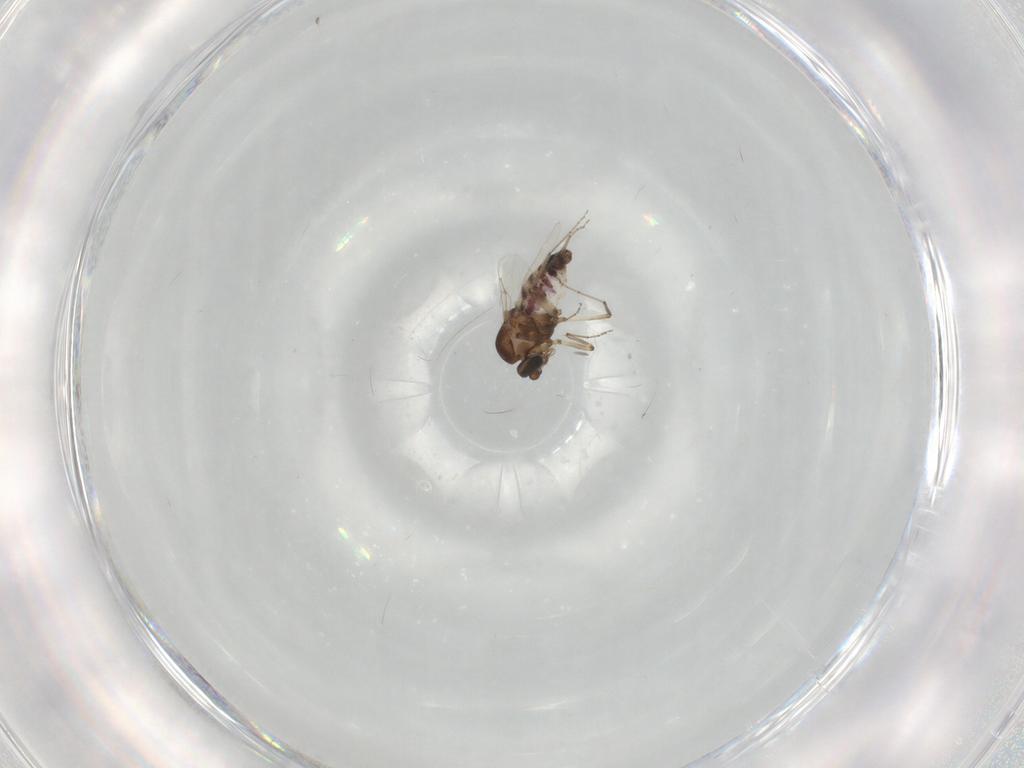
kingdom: Animalia
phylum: Arthropoda
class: Insecta
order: Diptera
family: Ceratopogonidae
